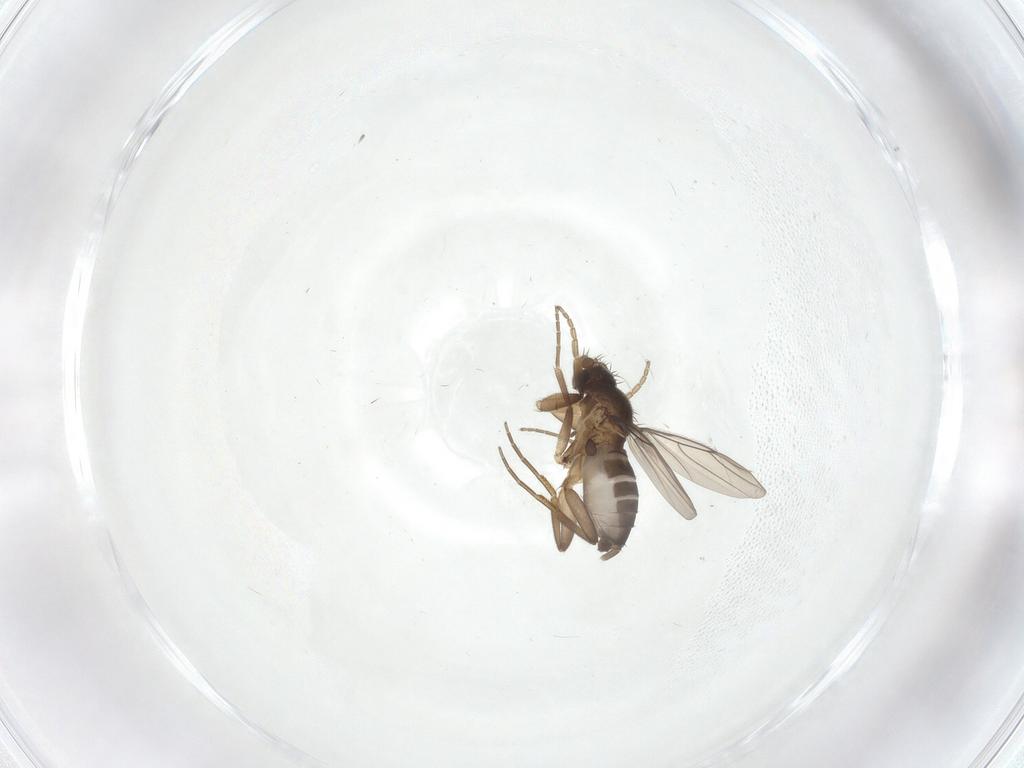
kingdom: Animalia
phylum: Arthropoda
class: Insecta
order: Diptera
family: Phoridae
